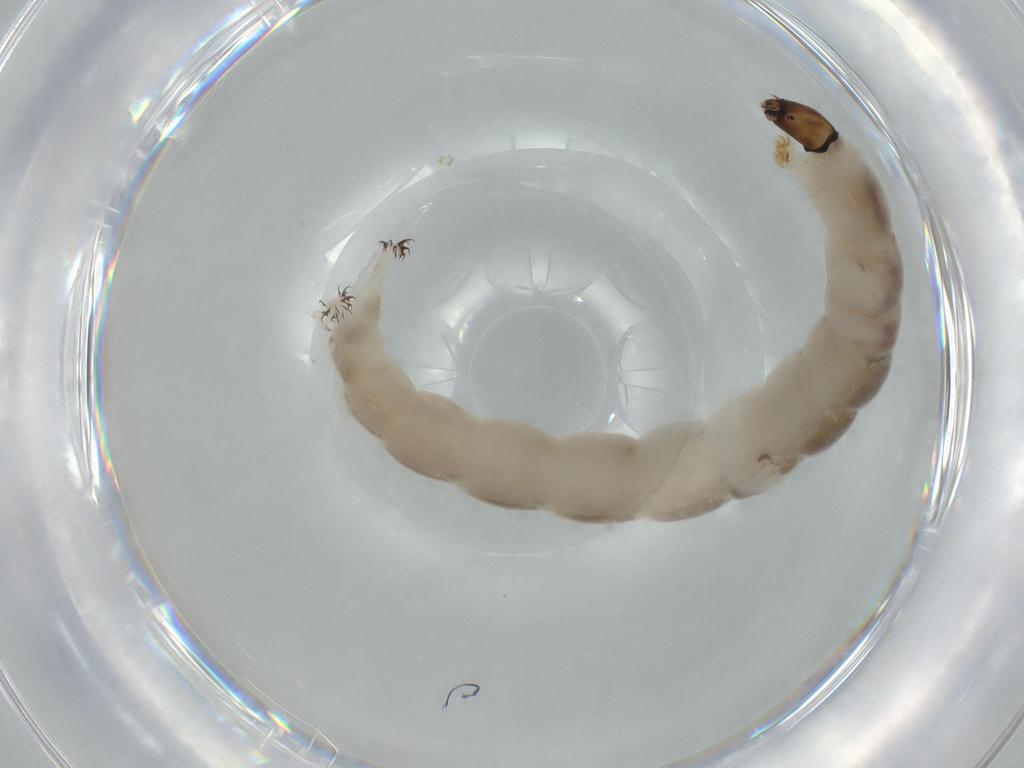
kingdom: Animalia
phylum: Arthropoda
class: Insecta
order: Diptera
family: Chironomidae
